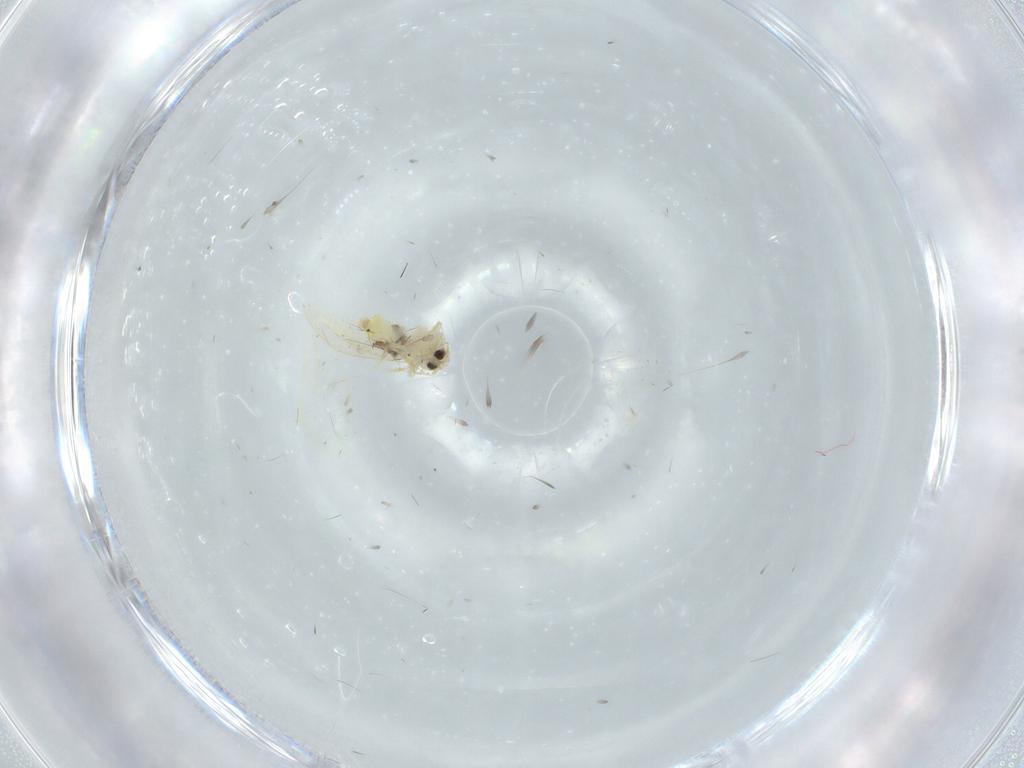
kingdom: Animalia
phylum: Arthropoda
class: Insecta
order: Hemiptera
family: Aleyrodidae
